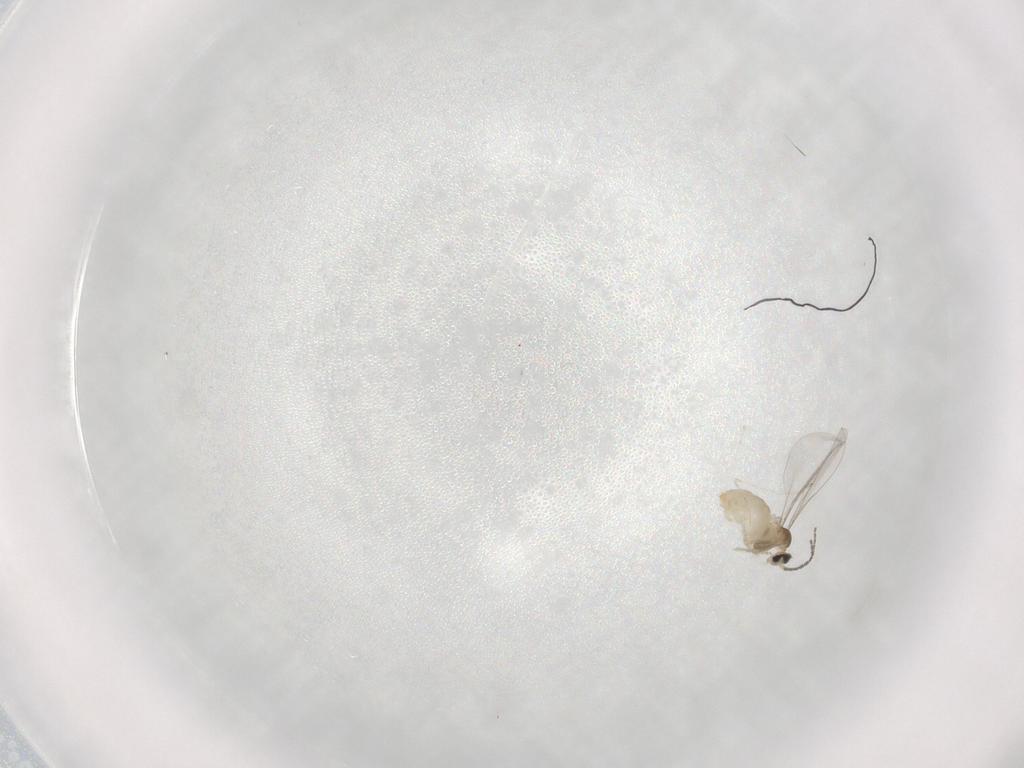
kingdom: Animalia
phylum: Arthropoda
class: Insecta
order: Diptera
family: Cecidomyiidae
